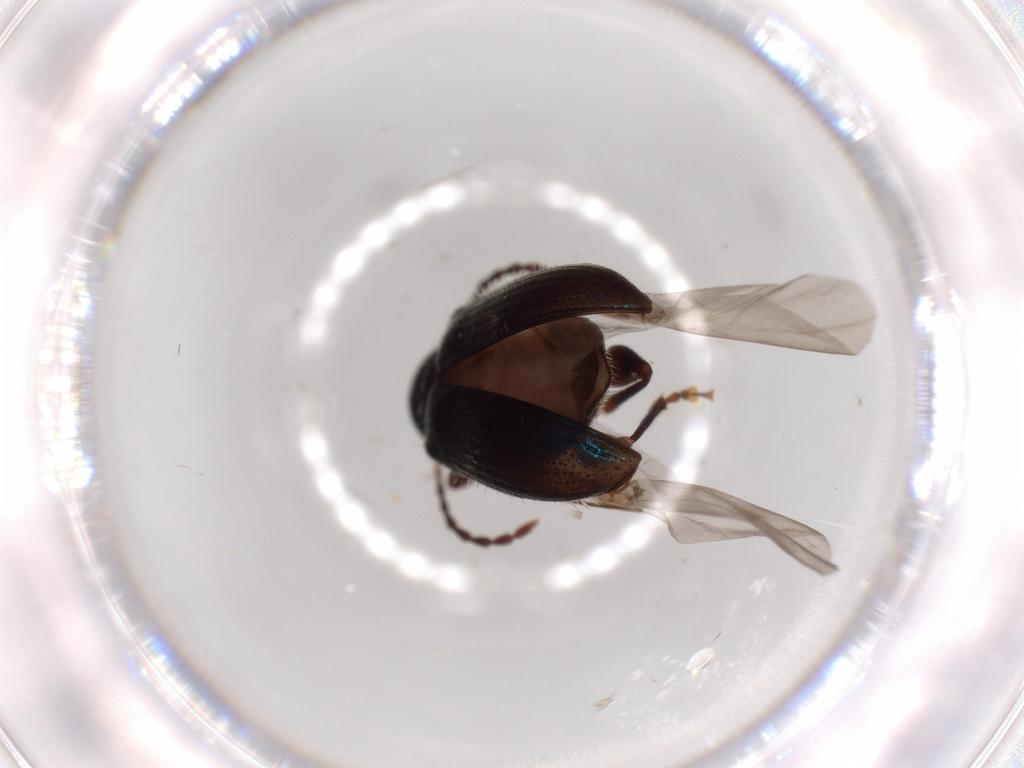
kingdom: Animalia
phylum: Arthropoda
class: Insecta
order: Coleoptera
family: Chrysomelidae
